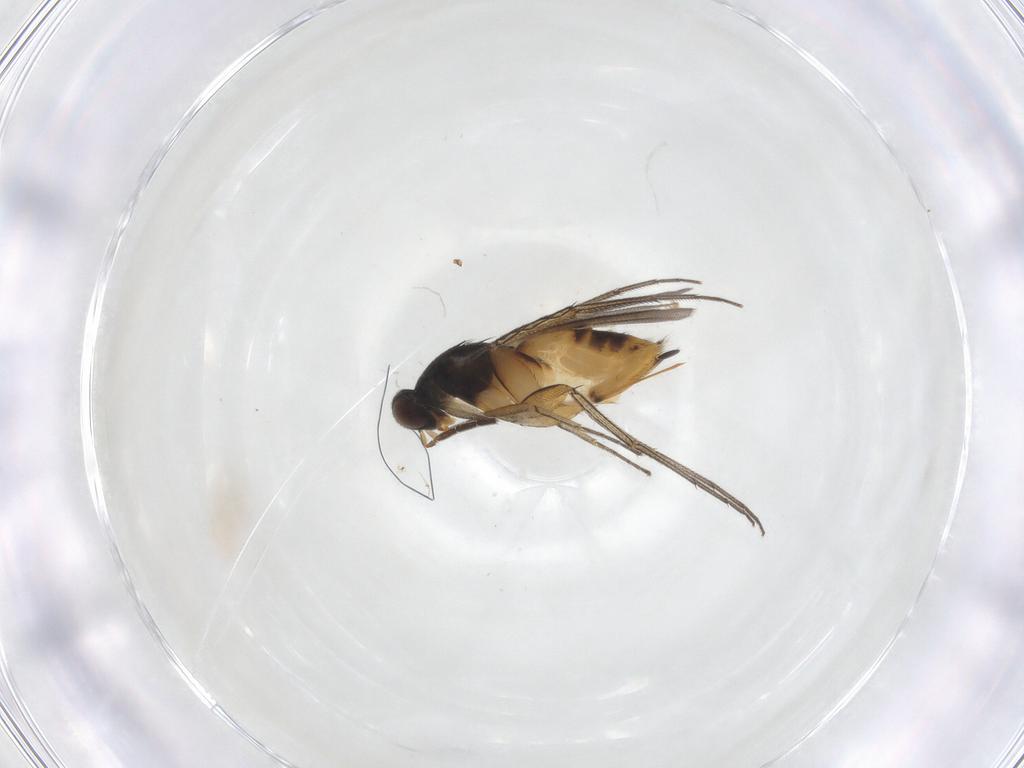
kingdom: Animalia
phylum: Arthropoda
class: Insecta
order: Hymenoptera
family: Eulophidae
